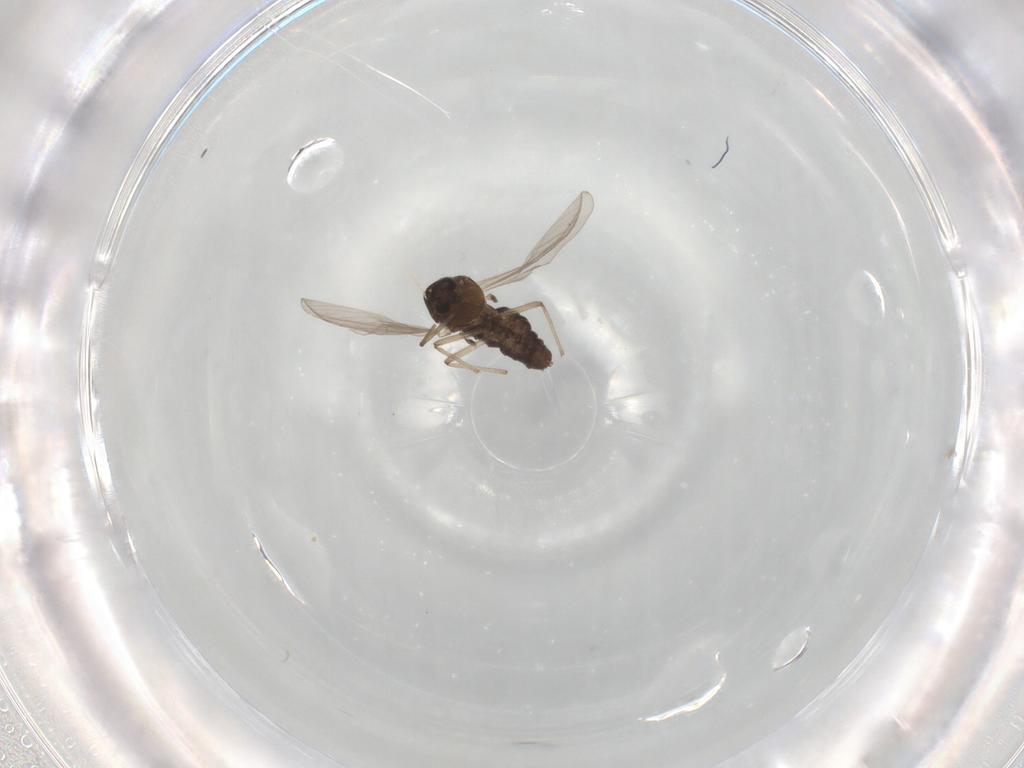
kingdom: Animalia
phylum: Arthropoda
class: Insecta
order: Diptera
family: Chironomidae
